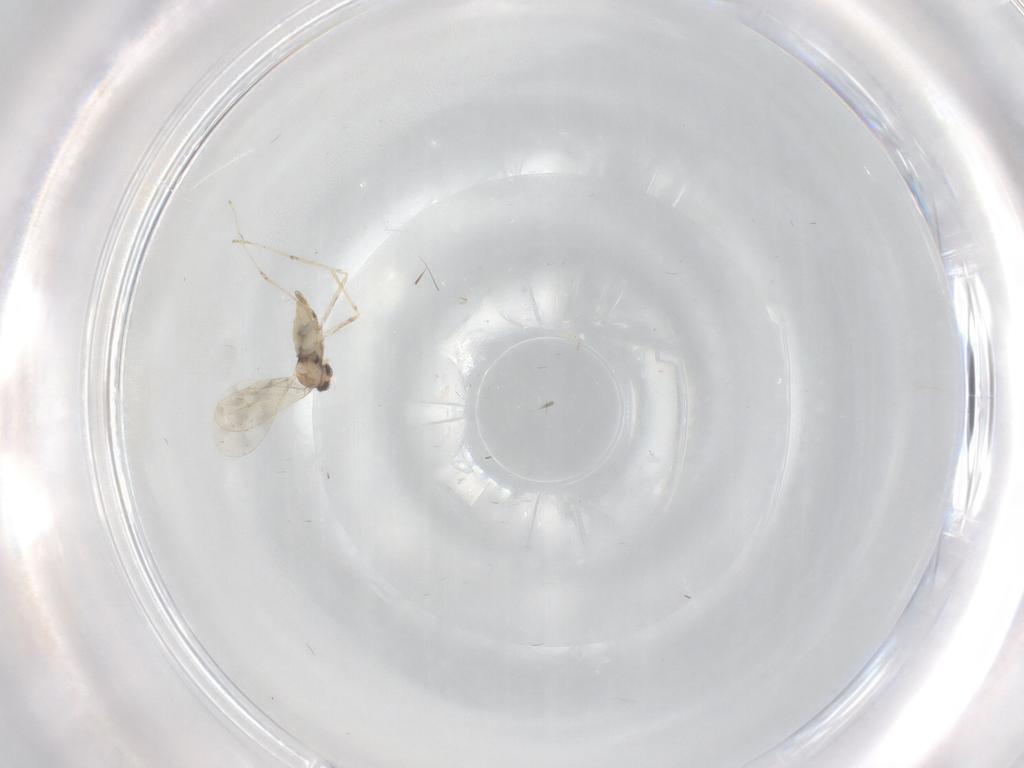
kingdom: Animalia
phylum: Arthropoda
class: Insecta
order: Diptera
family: Cecidomyiidae
